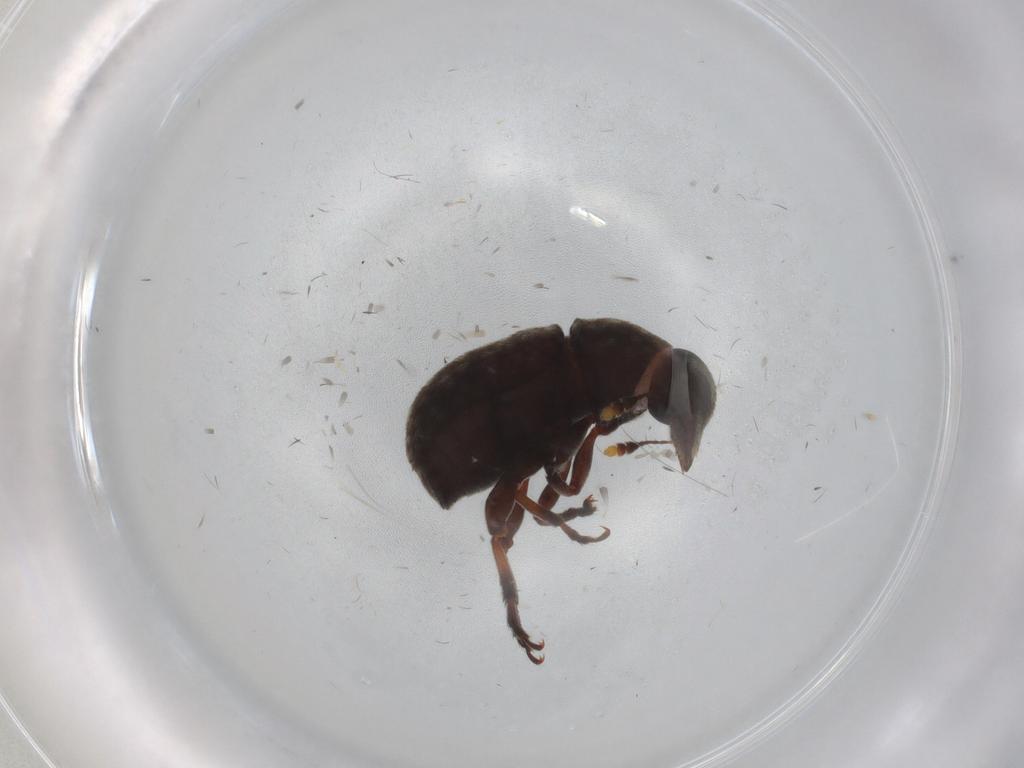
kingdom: Animalia
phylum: Arthropoda
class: Insecta
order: Coleoptera
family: Anthribidae
